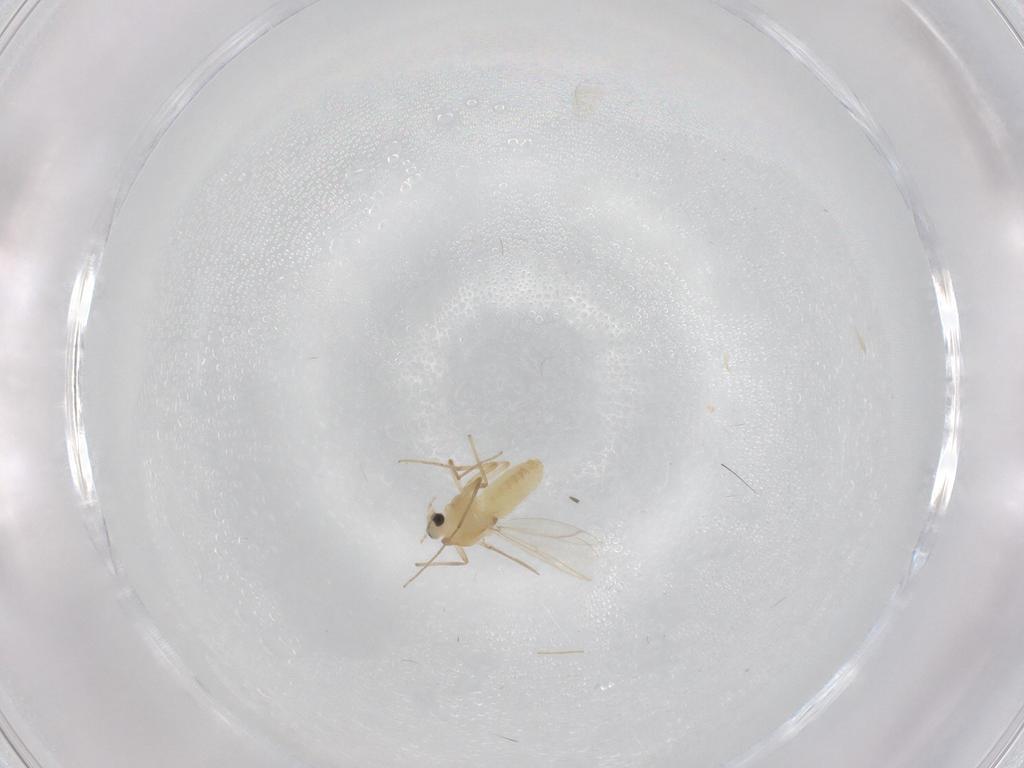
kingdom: Animalia
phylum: Arthropoda
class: Insecta
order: Diptera
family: Chironomidae
